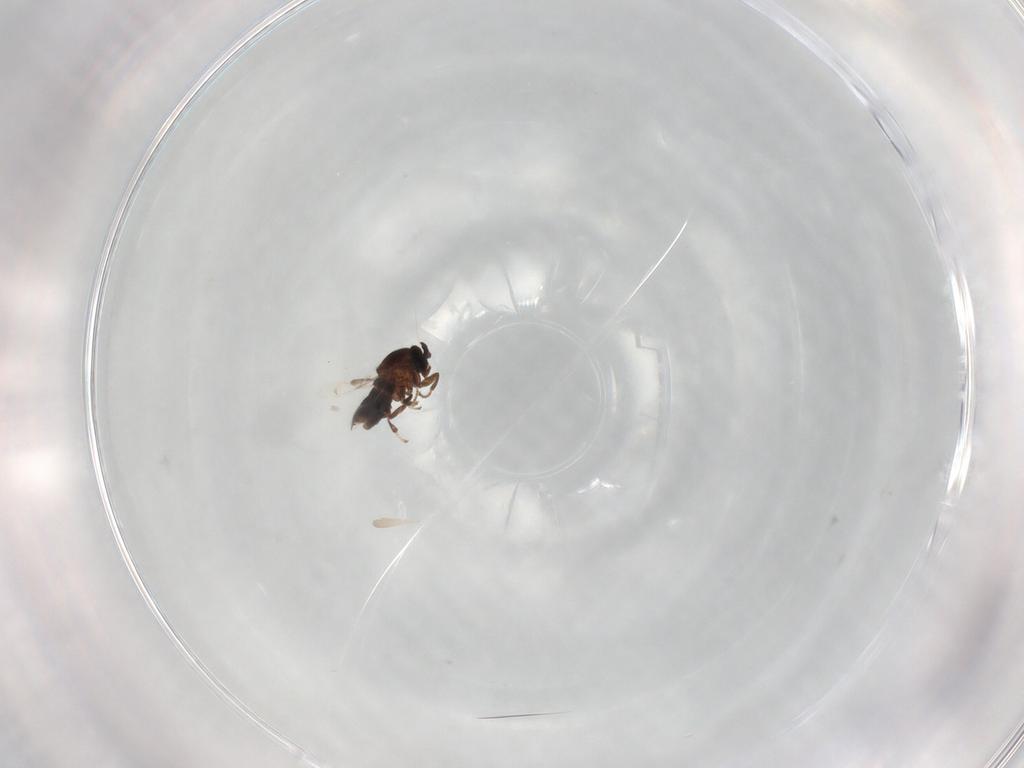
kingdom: Animalia
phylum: Arthropoda
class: Insecta
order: Diptera
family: Scatopsidae
